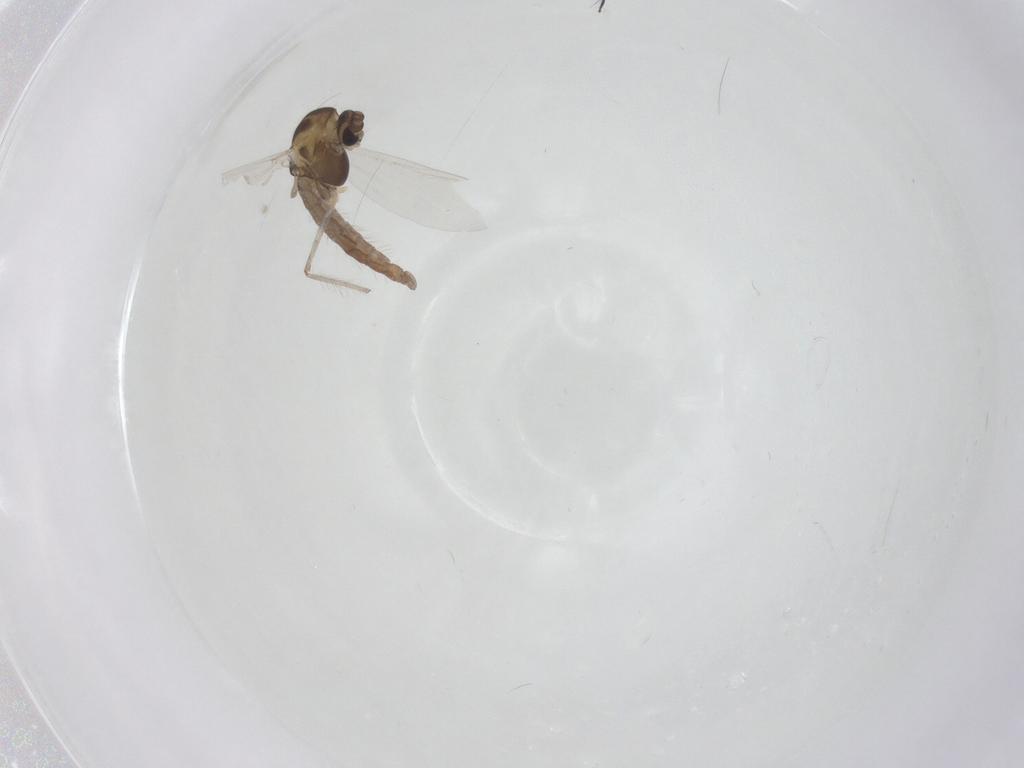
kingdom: Animalia
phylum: Arthropoda
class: Insecta
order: Diptera
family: Chironomidae
